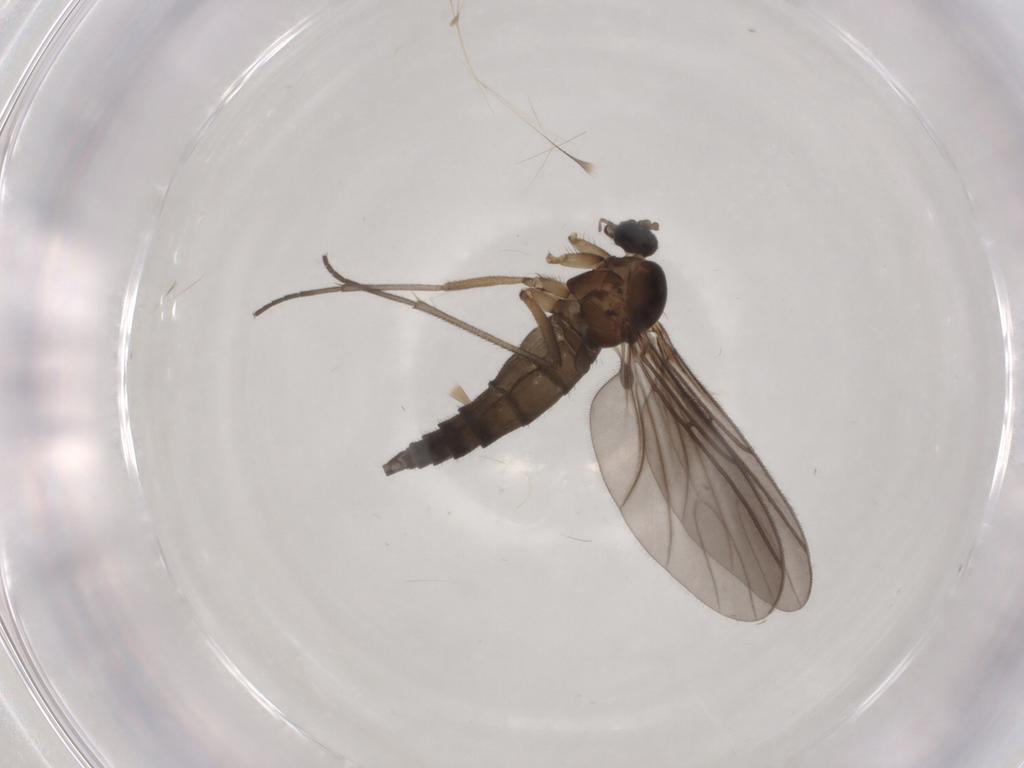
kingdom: Animalia
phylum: Arthropoda
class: Insecta
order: Diptera
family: Sciaridae
